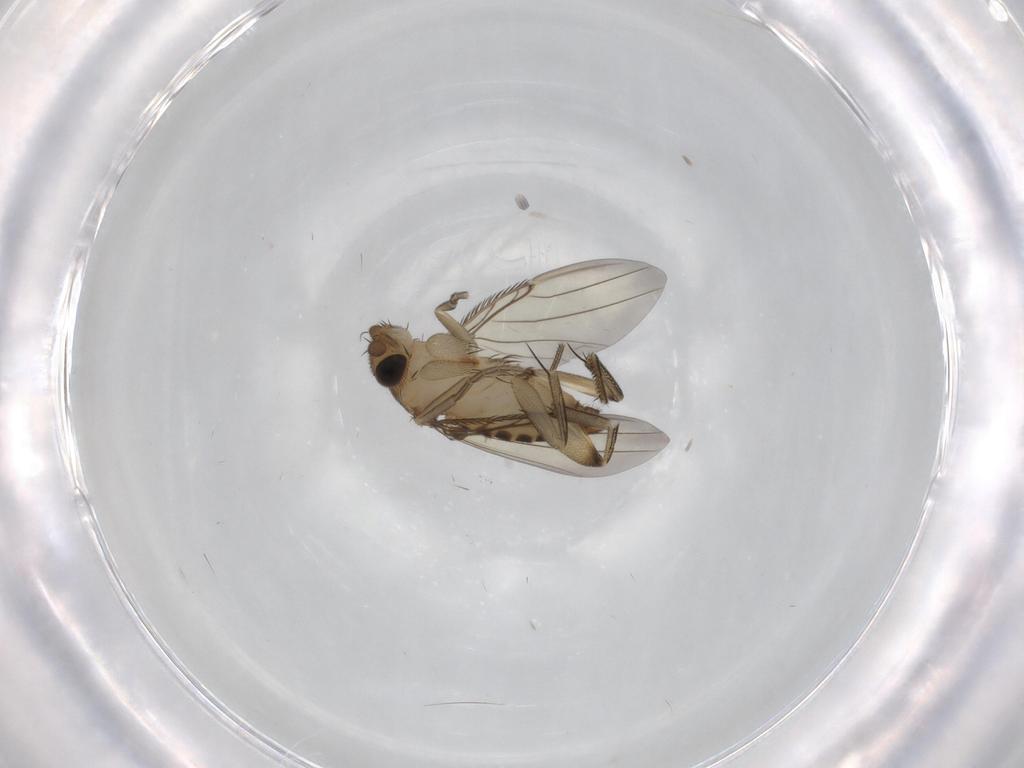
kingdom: Animalia
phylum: Arthropoda
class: Insecta
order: Diptera
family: Phoridae
